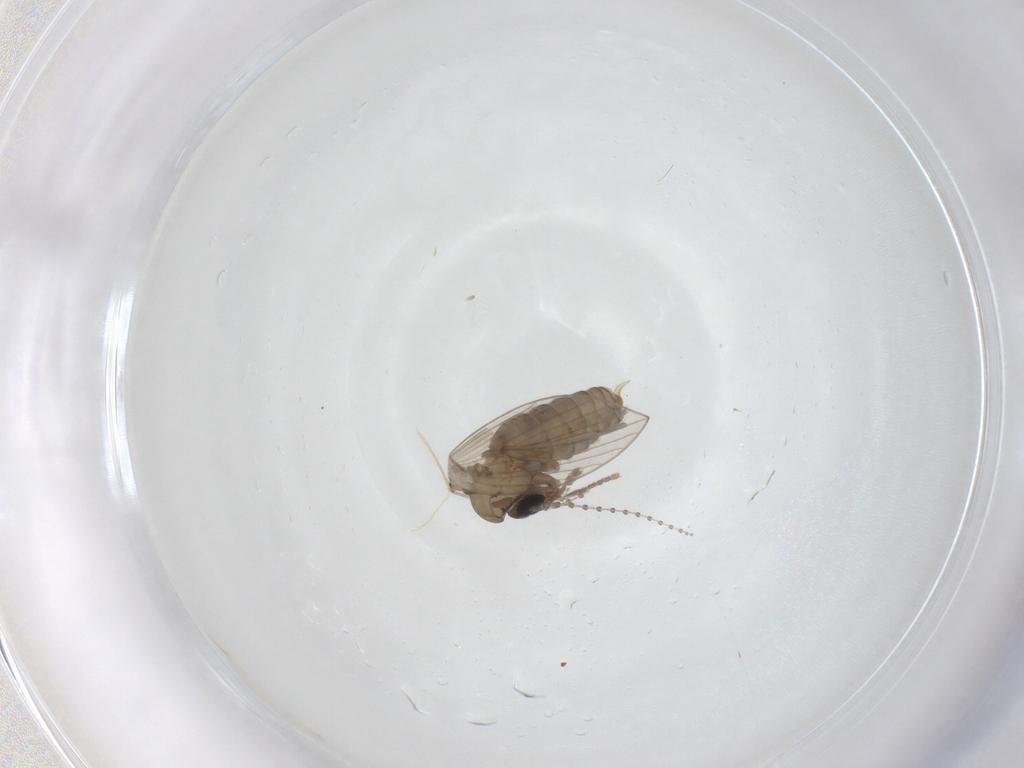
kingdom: Animalia
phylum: Arthropoda
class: Insecta
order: Diptera
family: Psychodidae
